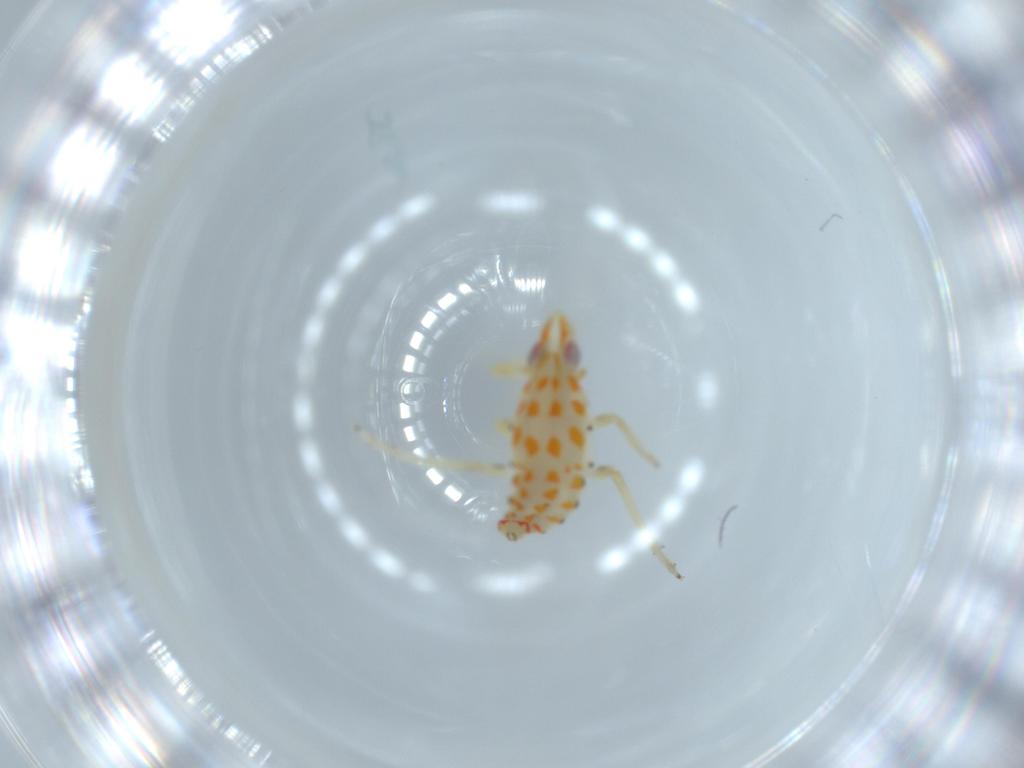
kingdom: Animalia
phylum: Arthropoda
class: Insecta
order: Hemiptera
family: Tropiduchidae
